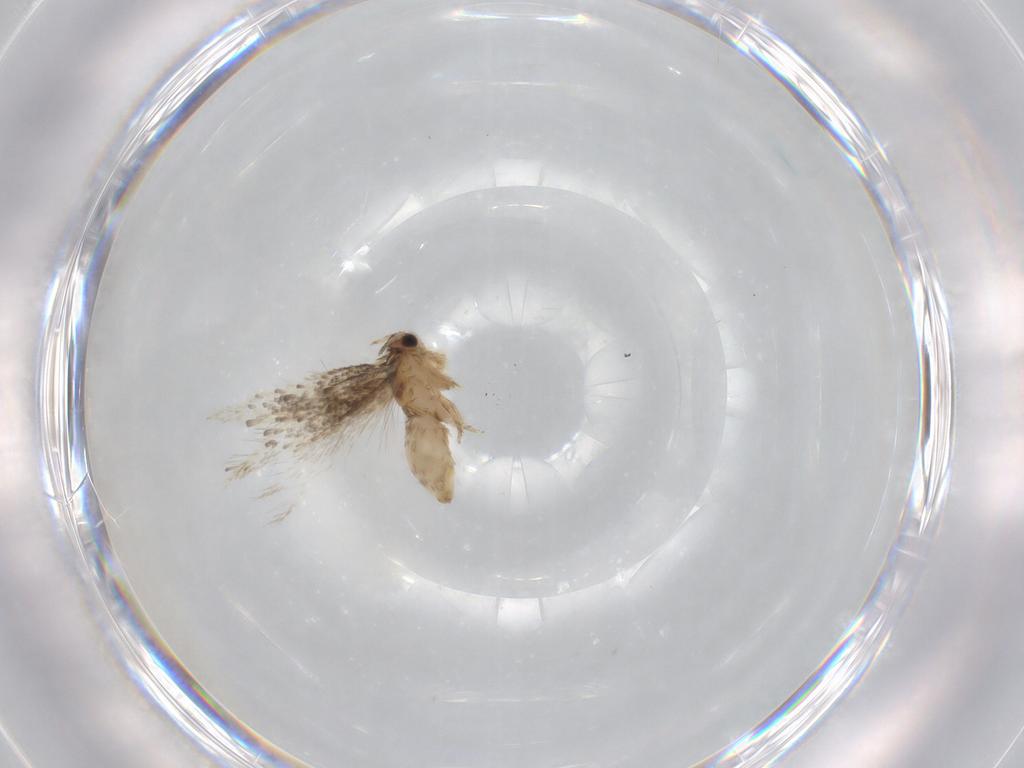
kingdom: Animalia
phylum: Arthropoda
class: Insecta
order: Lepidoptera
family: Nepticulidae
